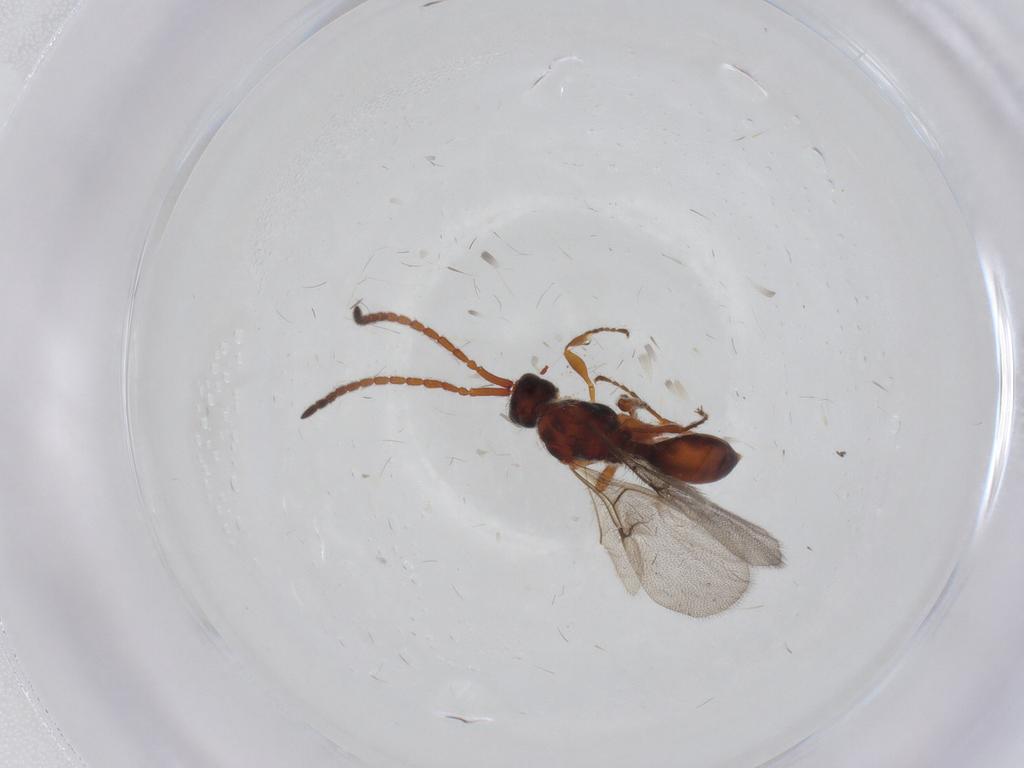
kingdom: Animalia
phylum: Arthropoda
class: Insecta
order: Hymenoptera
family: Diapriidae
